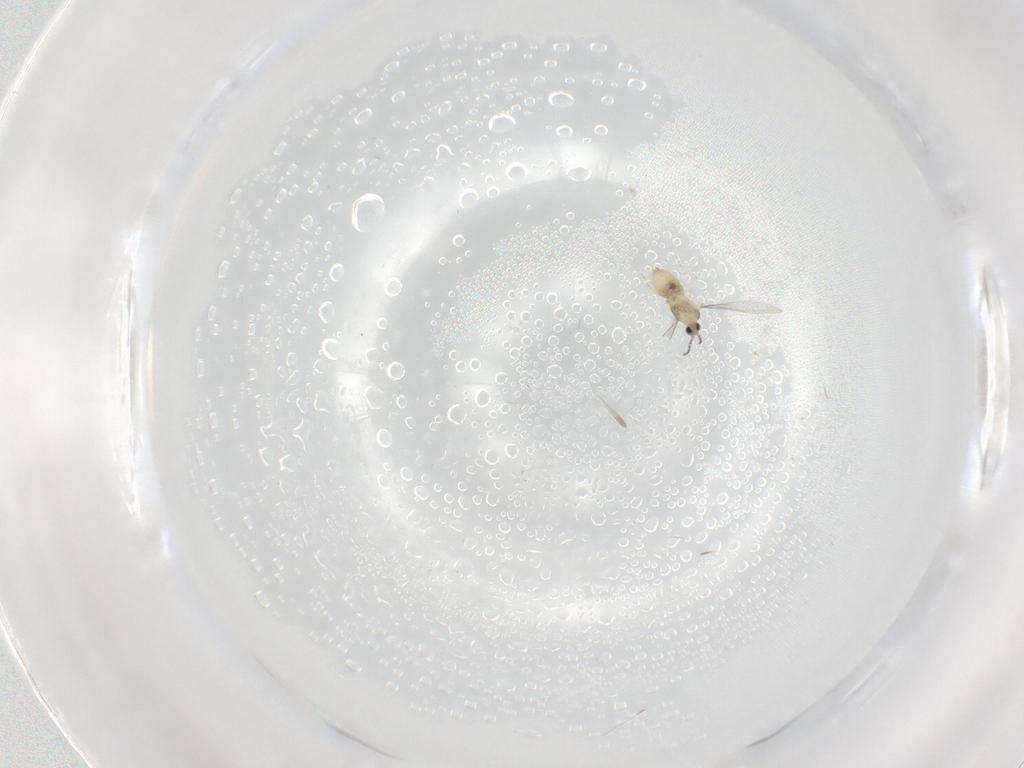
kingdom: Animalia
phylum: Arthropoda
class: Insecta
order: Diptera
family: Cecidomyiidae
